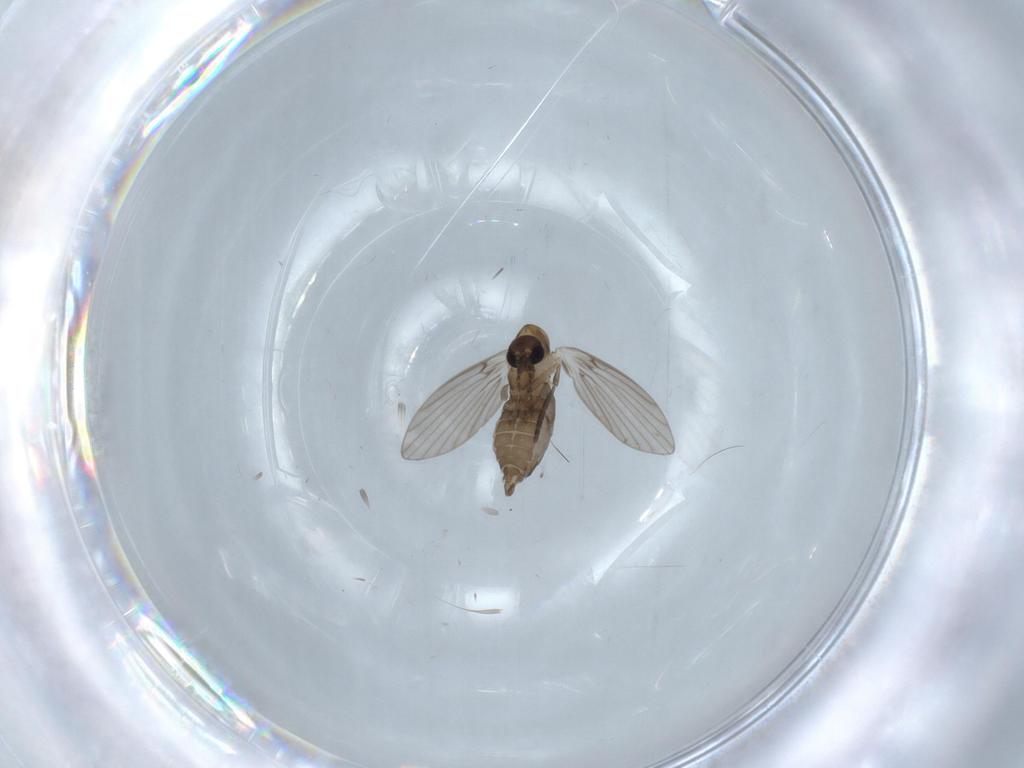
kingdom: Animalia
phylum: Arthropoda
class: Insecta
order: Diptera
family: Psychodidae
